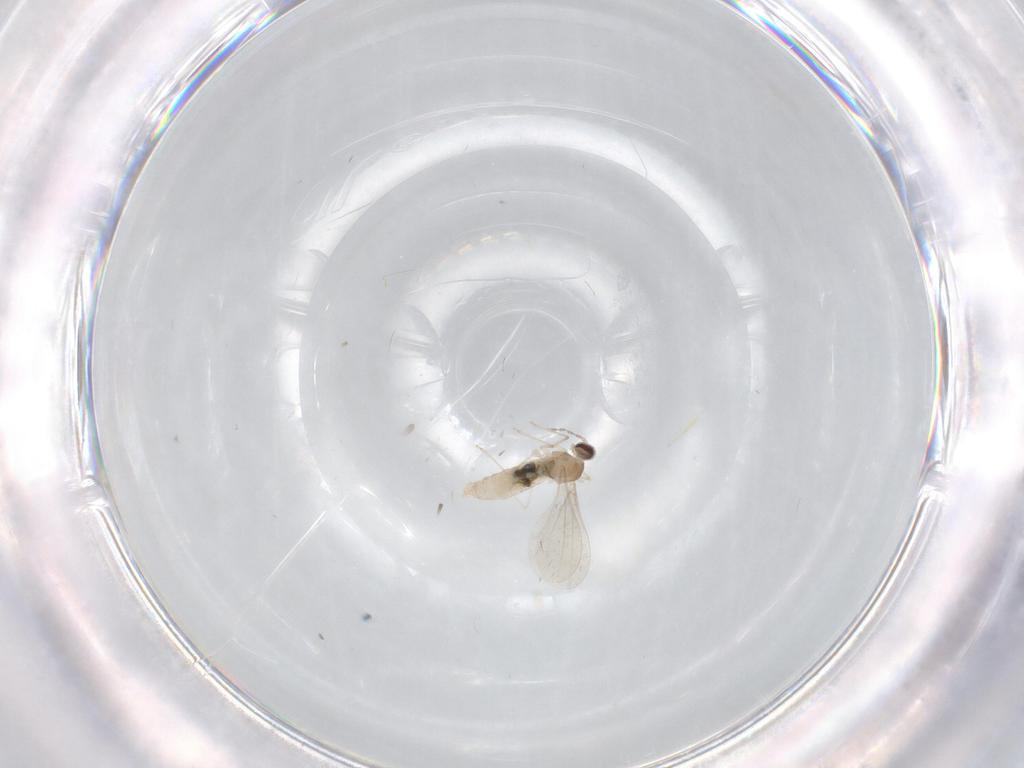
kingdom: Animalia
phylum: Arthropoda
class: Insecta
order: Diptera
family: Cecidomyiidae
